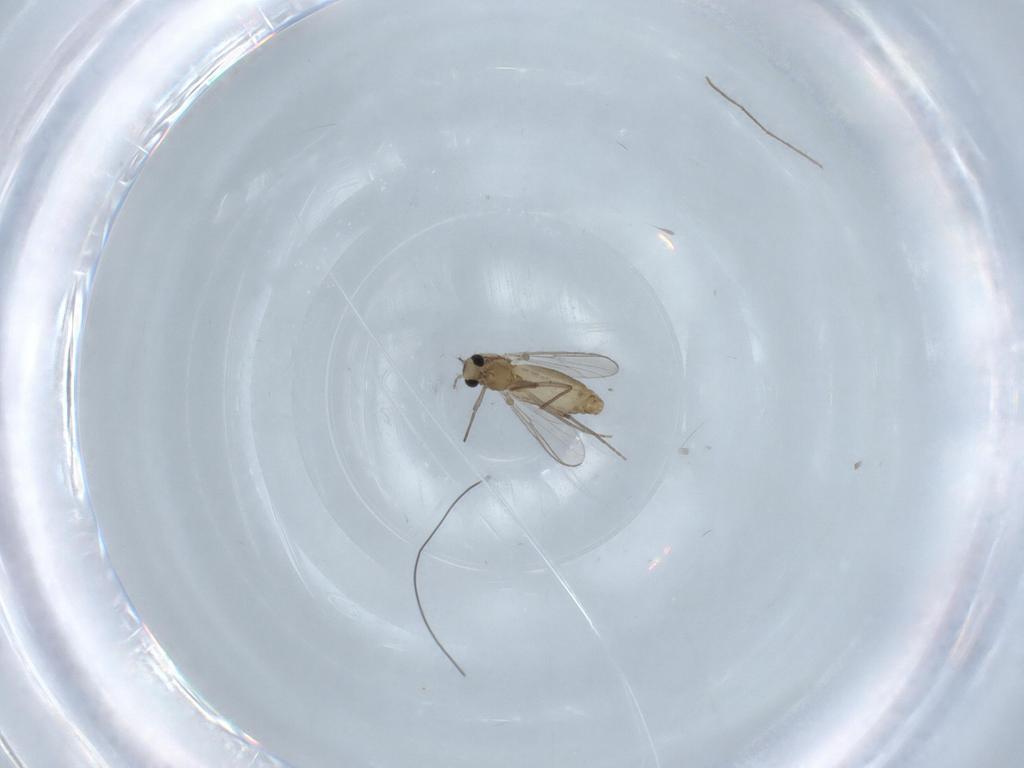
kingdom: Animalia
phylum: Arthropoda
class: Insecta
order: Diptera
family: Chironomidae
